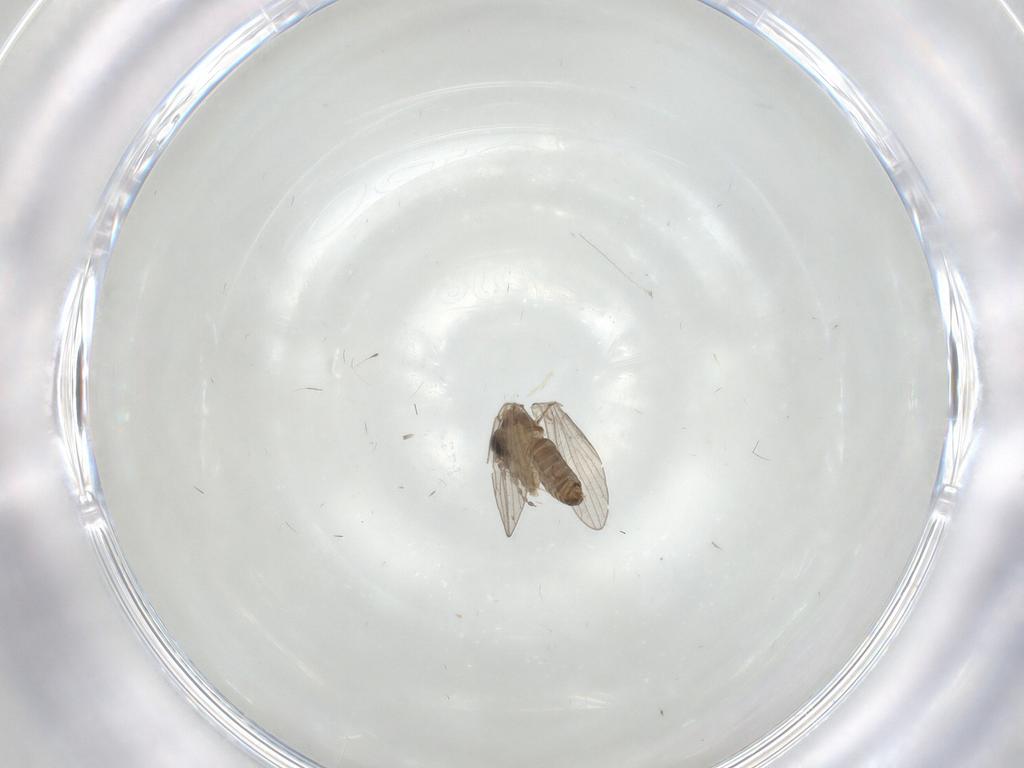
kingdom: Animalia
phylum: Arthropoda
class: Insecta
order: Diptera
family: Psychodidae
